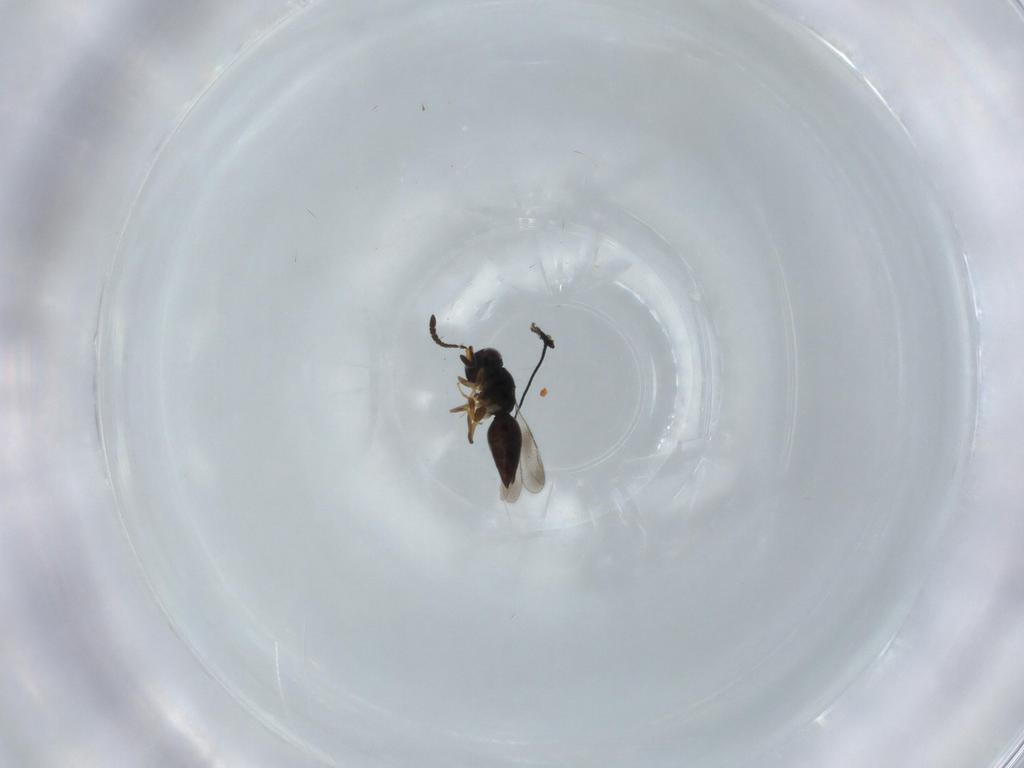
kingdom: Animalia
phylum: Arthropoda
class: Insecta
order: Hymenoptera
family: Ceraphronidae
